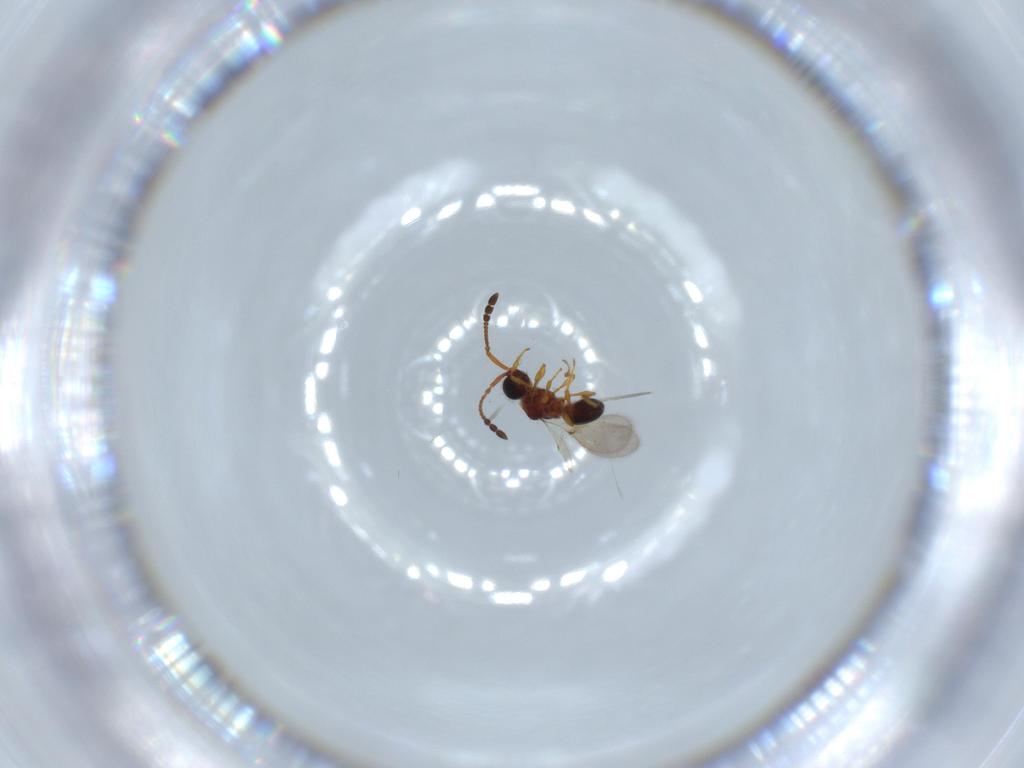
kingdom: Animalia
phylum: Arthropoda
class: Insecta
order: Hymenoptera
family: Diapriidae
